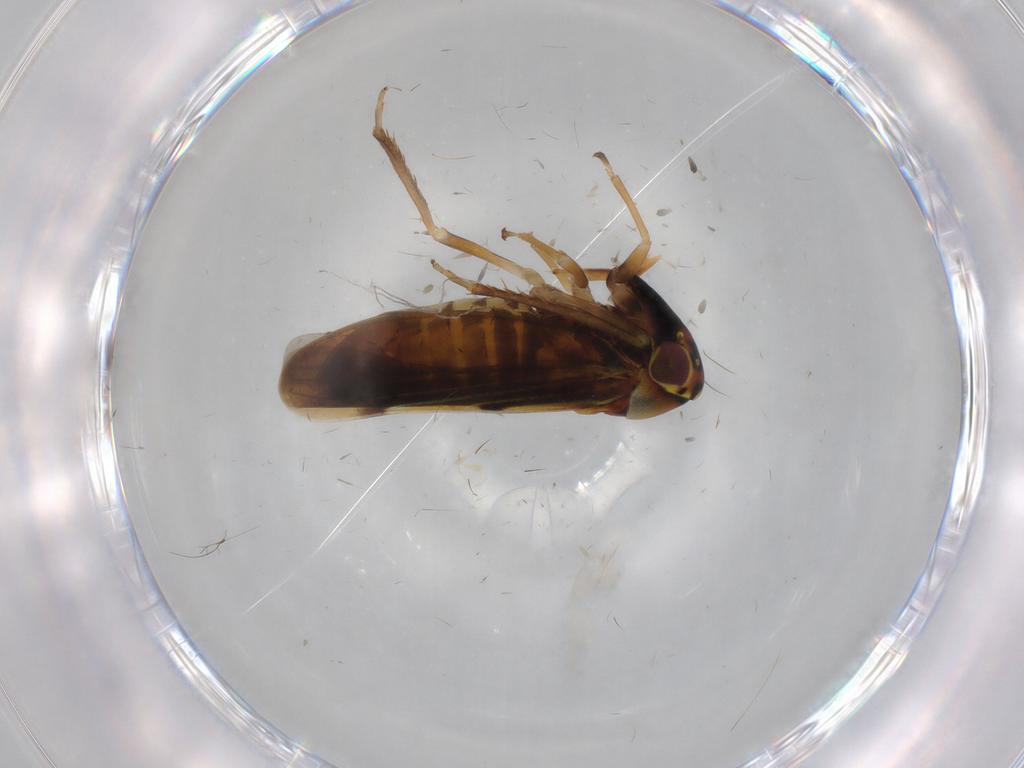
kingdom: Animalia
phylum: Arthropoda
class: Insecta
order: Hemiptera
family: Cicadellidae
